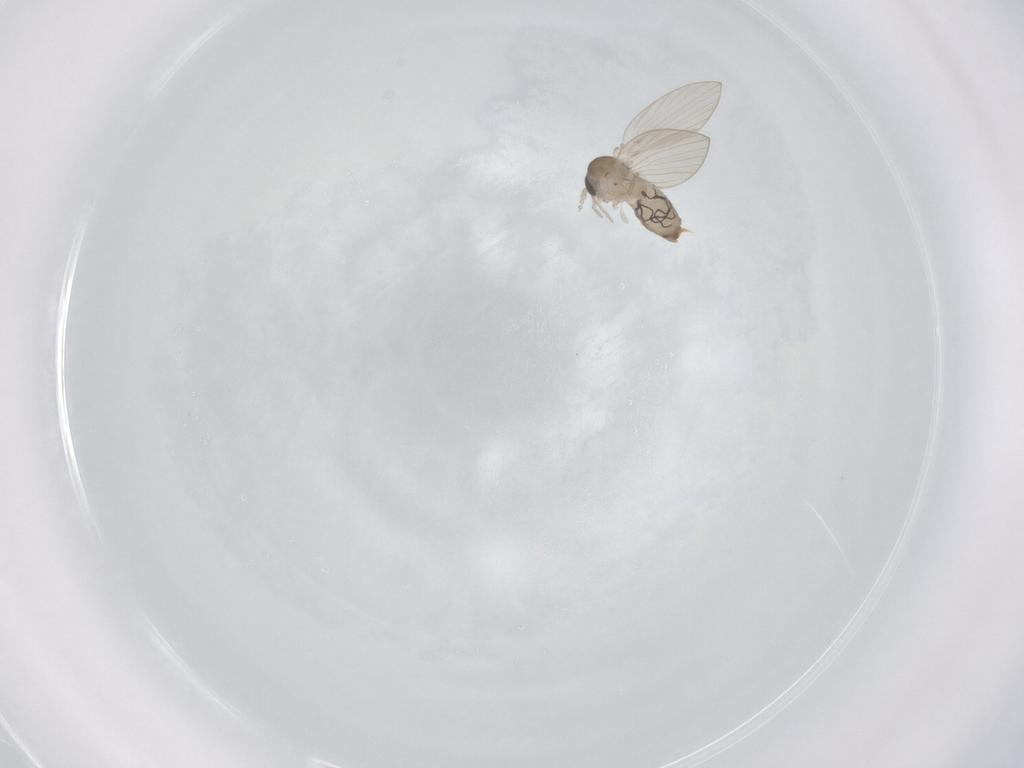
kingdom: Animalia
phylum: Arthropoda
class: Insecta
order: Diptera
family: Psychodidae
